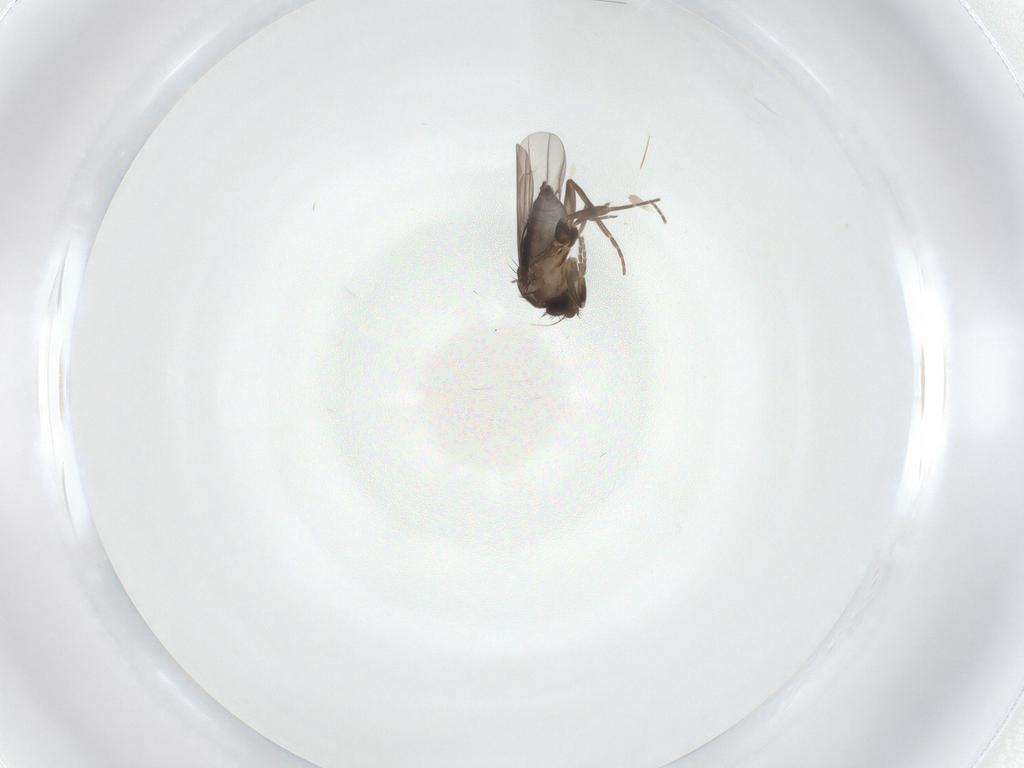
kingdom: Animalia
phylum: Arthropoda
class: Insecta
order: Diptera
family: Phoridae
